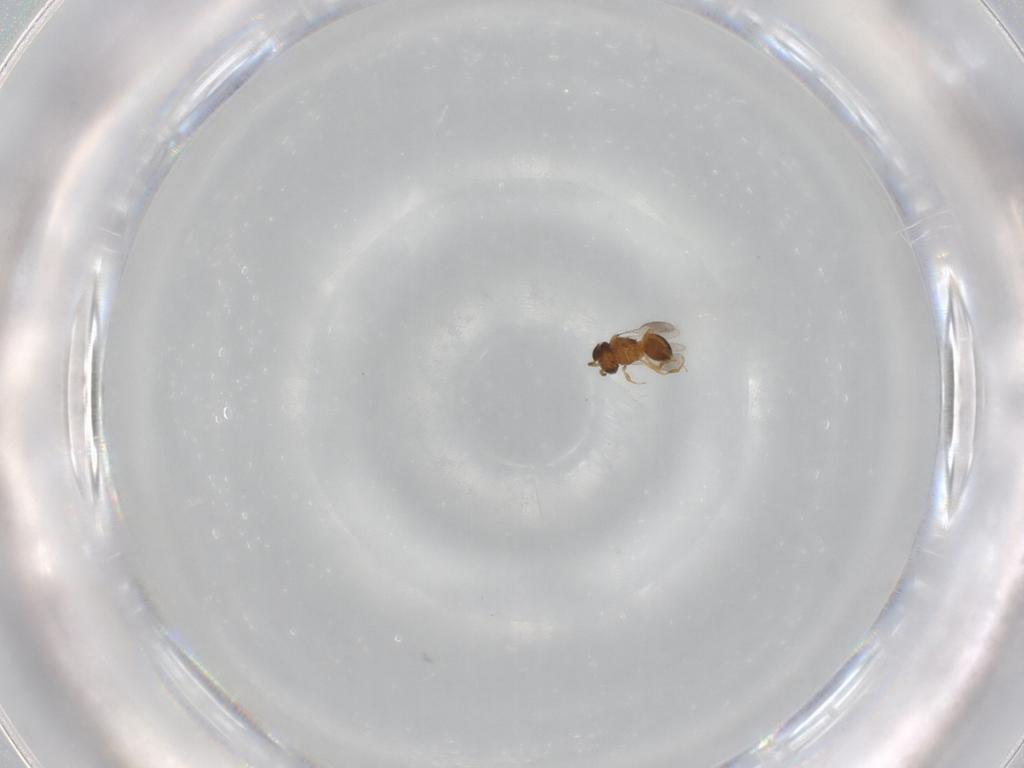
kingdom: Animalia
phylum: Arthropoda
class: Insecta
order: Hymenoptera
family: Scelionidae
